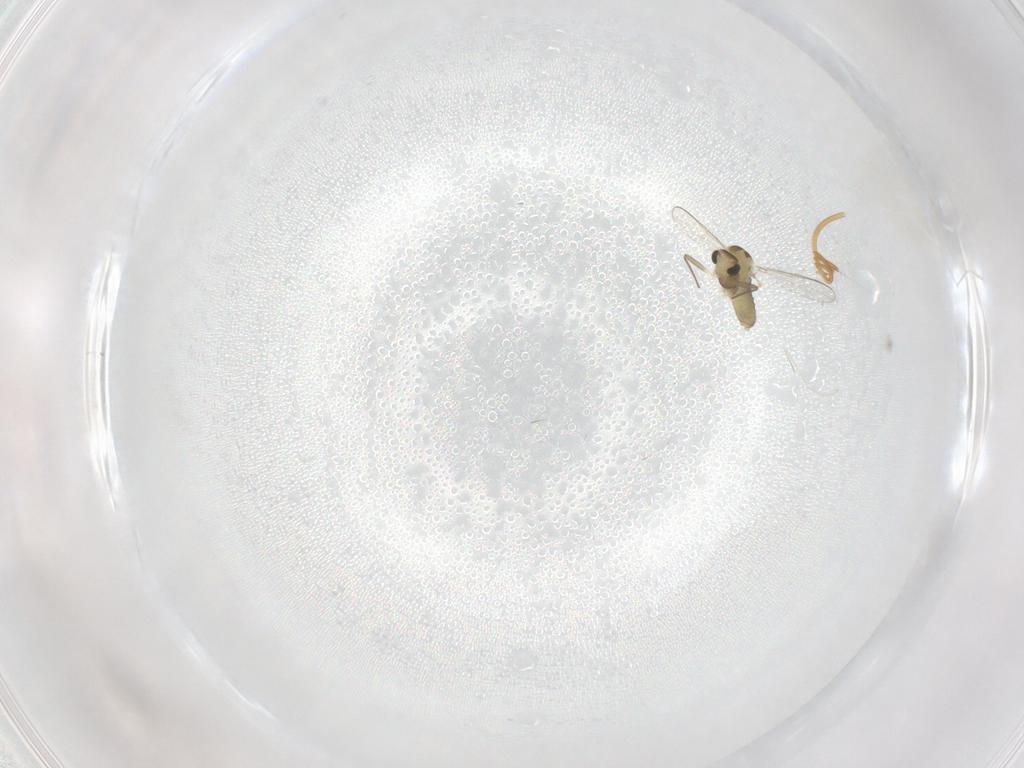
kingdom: Animalia
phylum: Arthropoda
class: Insecta
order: Diptera
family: Chironomidae
